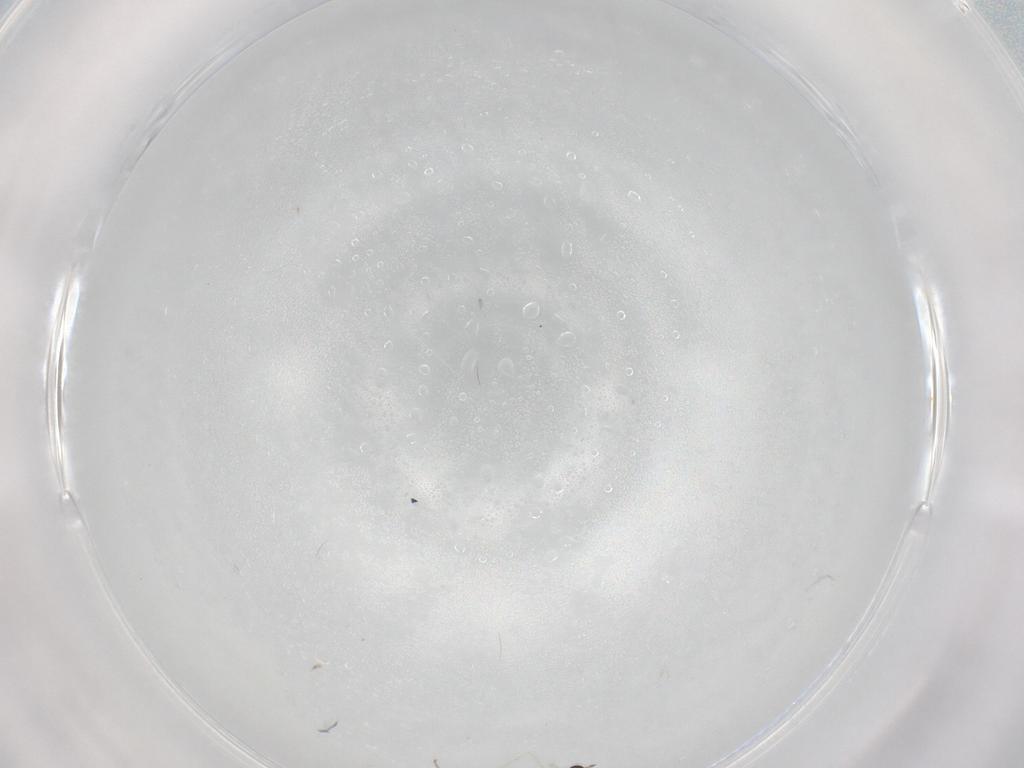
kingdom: Animalia
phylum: Arthropoda
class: Insecta
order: Diptera
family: Cecidomyiidae
